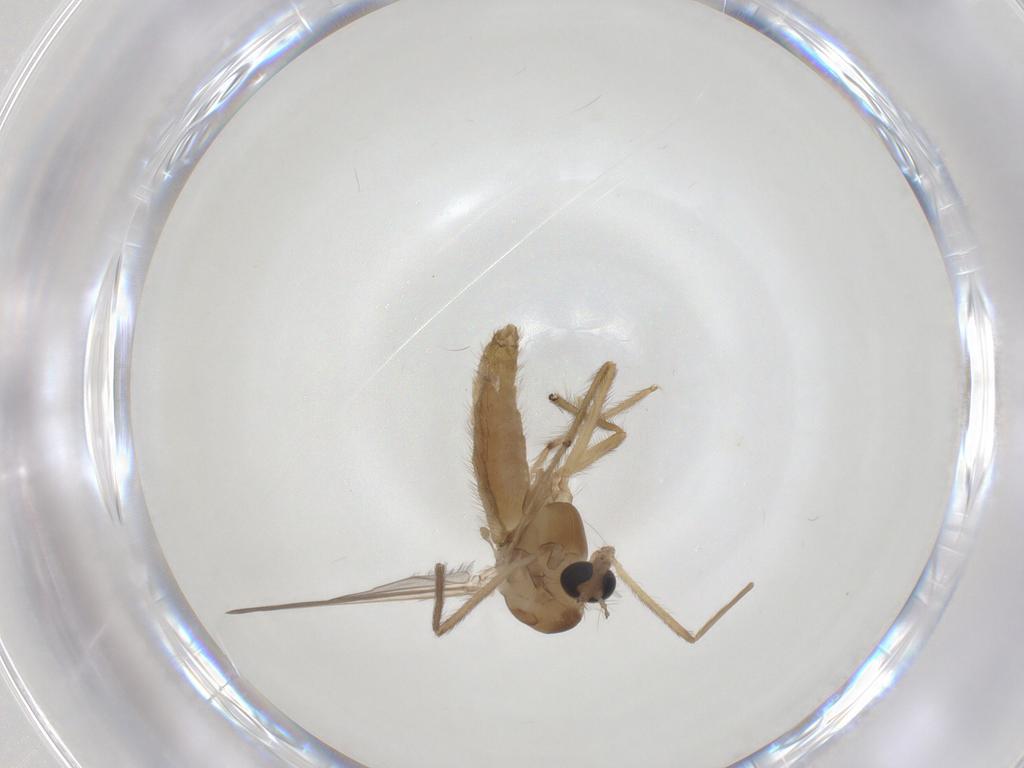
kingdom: Animalia
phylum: Arthropoda
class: Insecta
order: Diptera
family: Chironomidae
